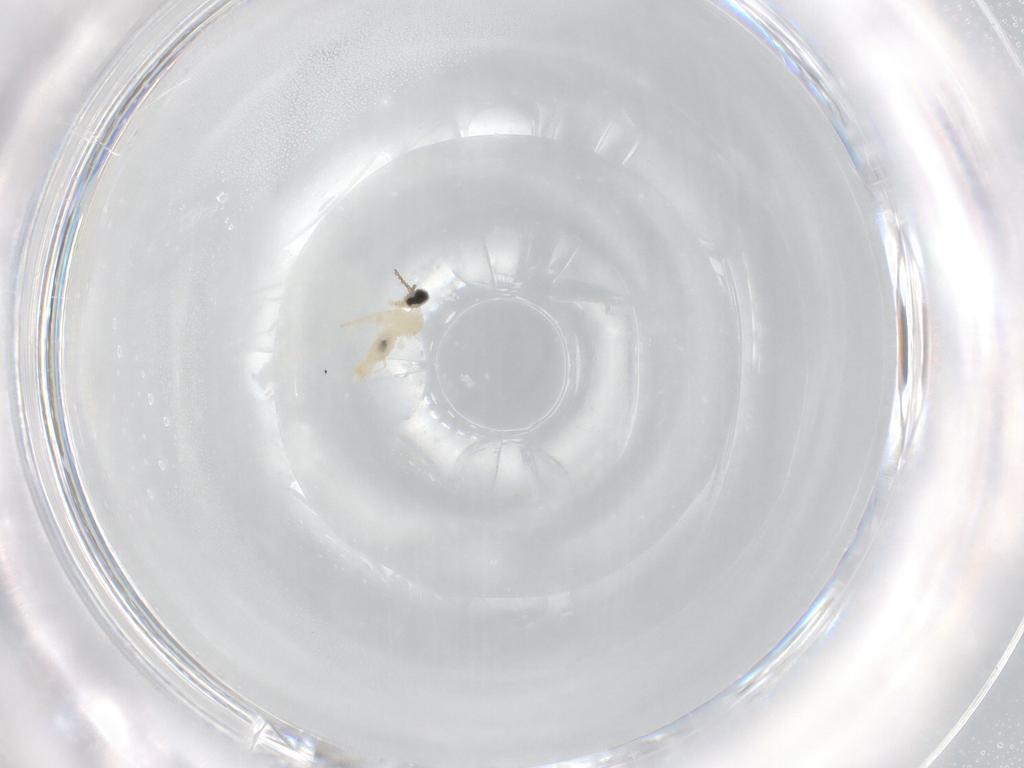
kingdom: Animalia
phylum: Arthropoda
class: Insecta
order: Diptera
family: Cecidomyiidae
